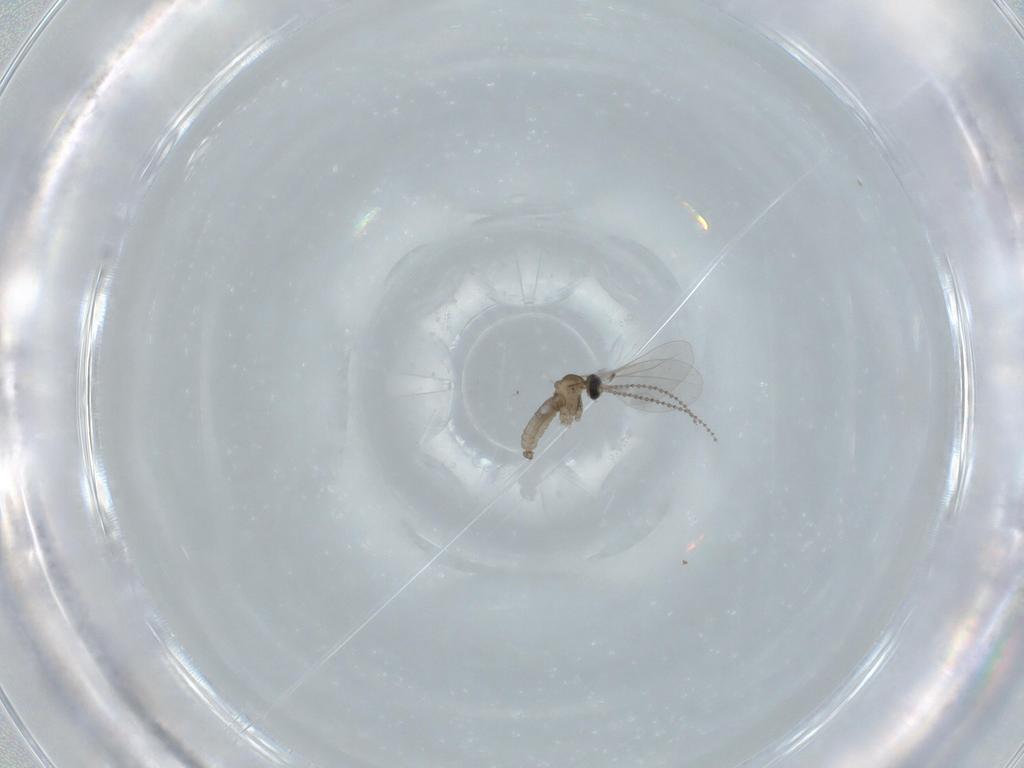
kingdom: Animalia
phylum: Arthropoda
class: Insecta
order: Diptera
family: Cecidomyiidae
